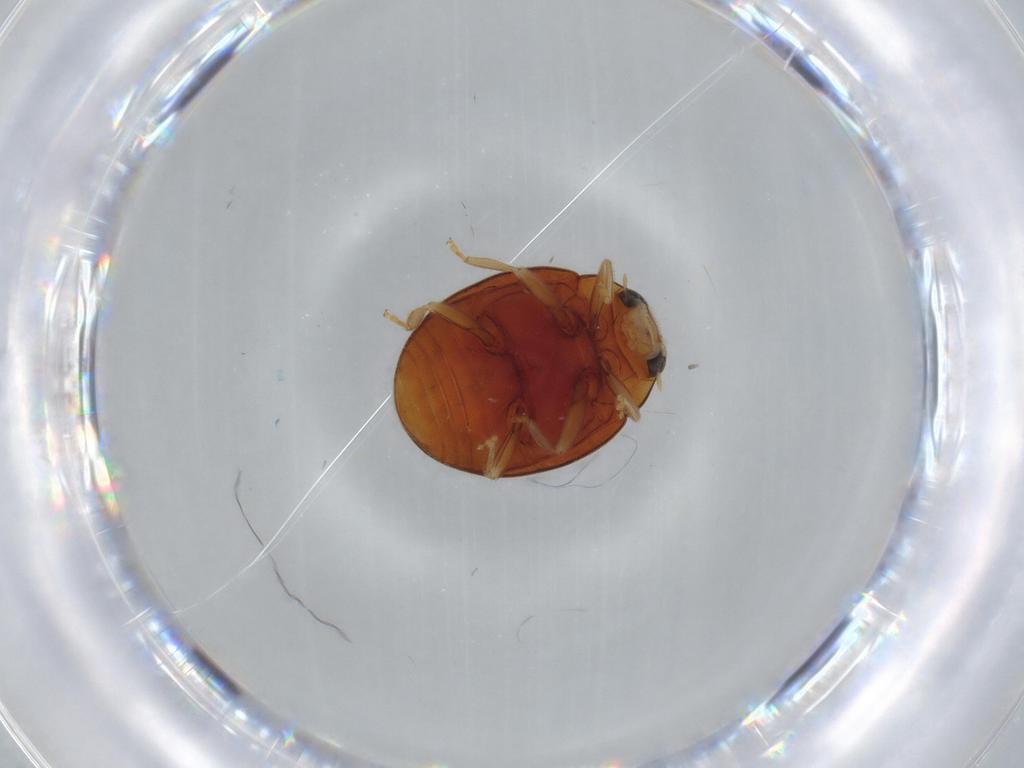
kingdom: Animalia
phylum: Arthropoda
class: Insecta
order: Coleoptera
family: Coccinellidae
